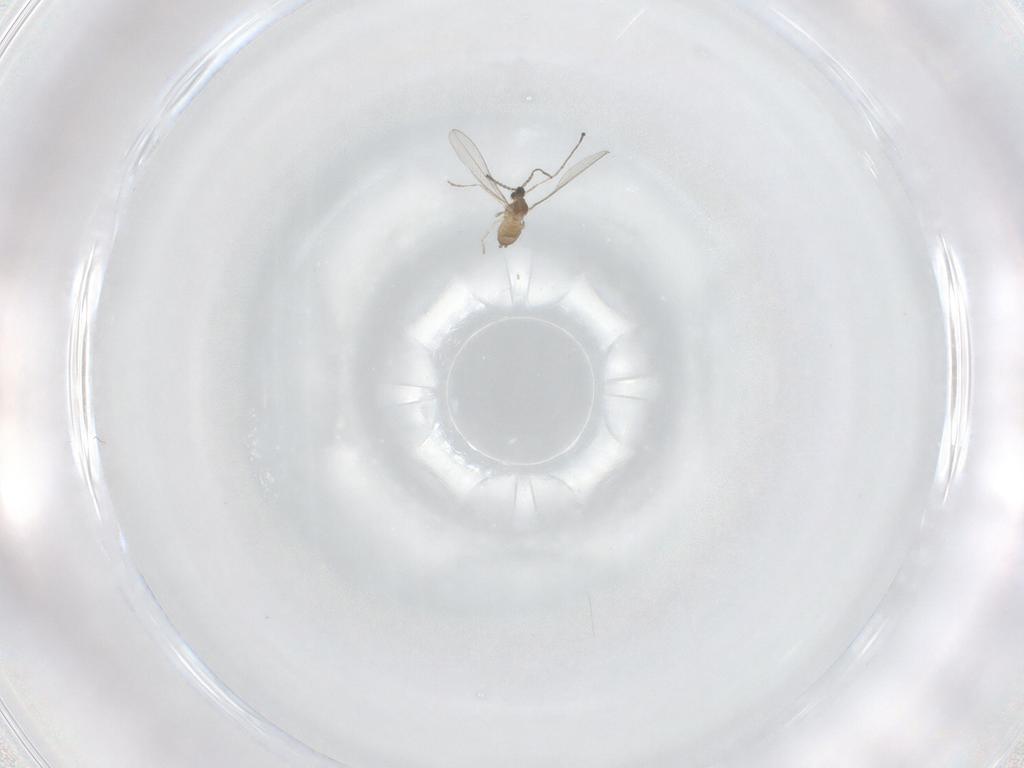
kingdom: Animalia
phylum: Arthropoda
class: Insecta
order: Diptera
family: Cecidomyiidae
